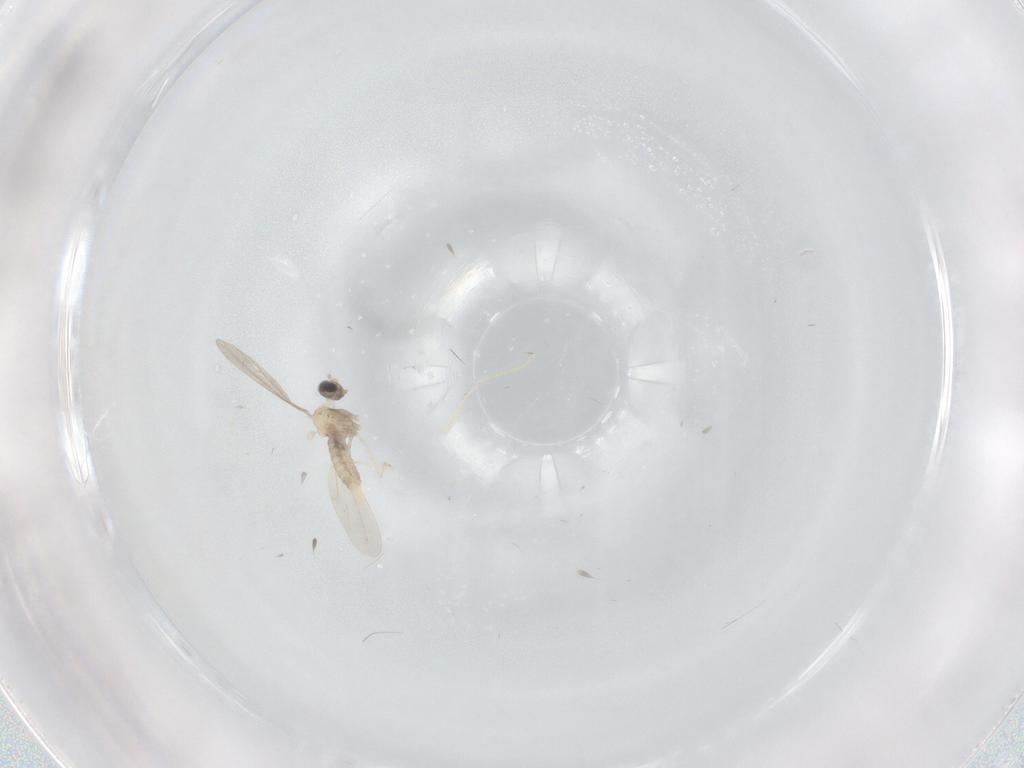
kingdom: Animalia
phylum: Arthropoda
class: Insecta
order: Diptera
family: Cecidomyiidae
